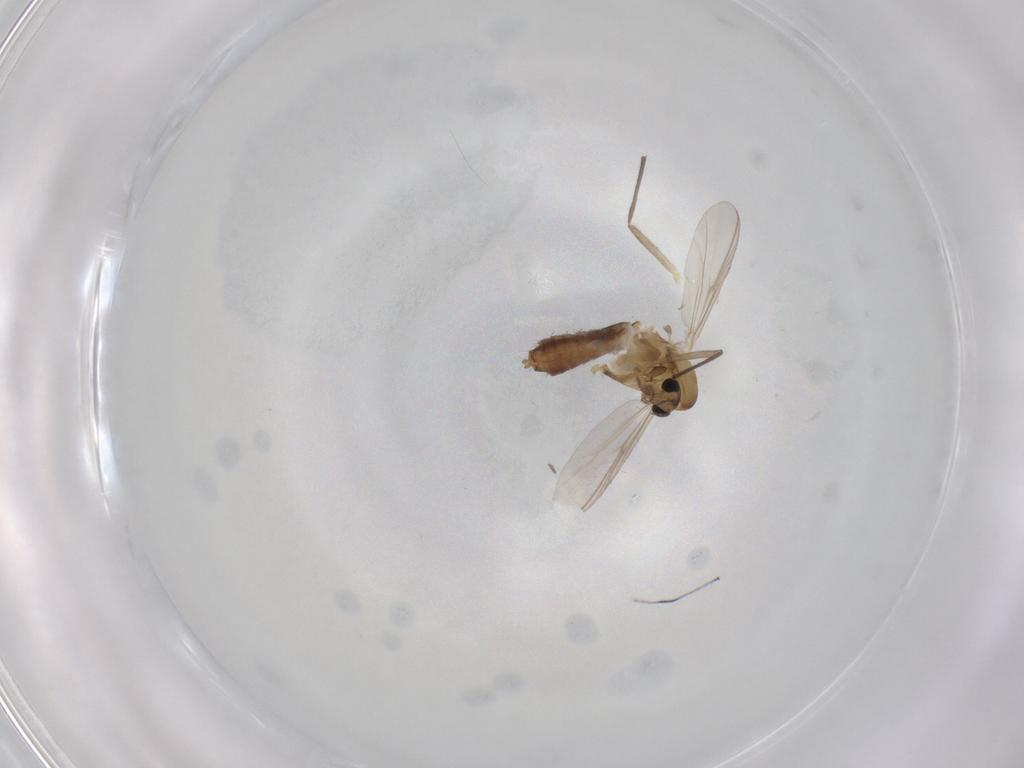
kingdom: Animalia
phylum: Arthropoda
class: Insecta
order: Diptera
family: Chironomidae
